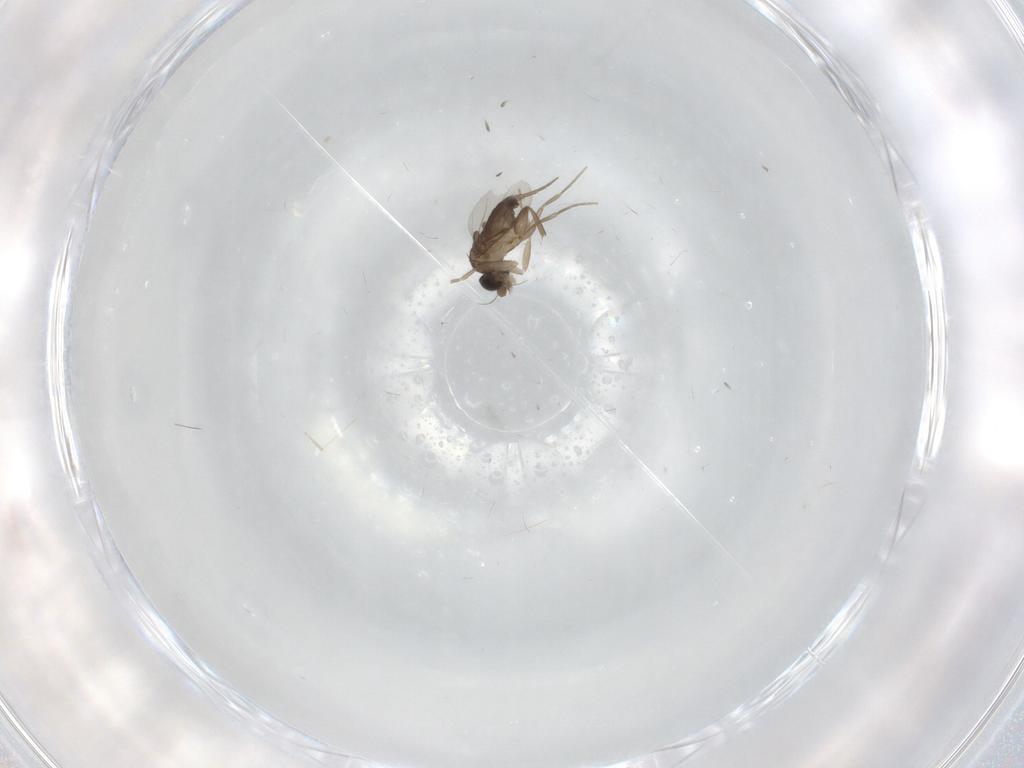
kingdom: Animalia
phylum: Arthropoda
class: Insecta
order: Diptera
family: Phoridae
